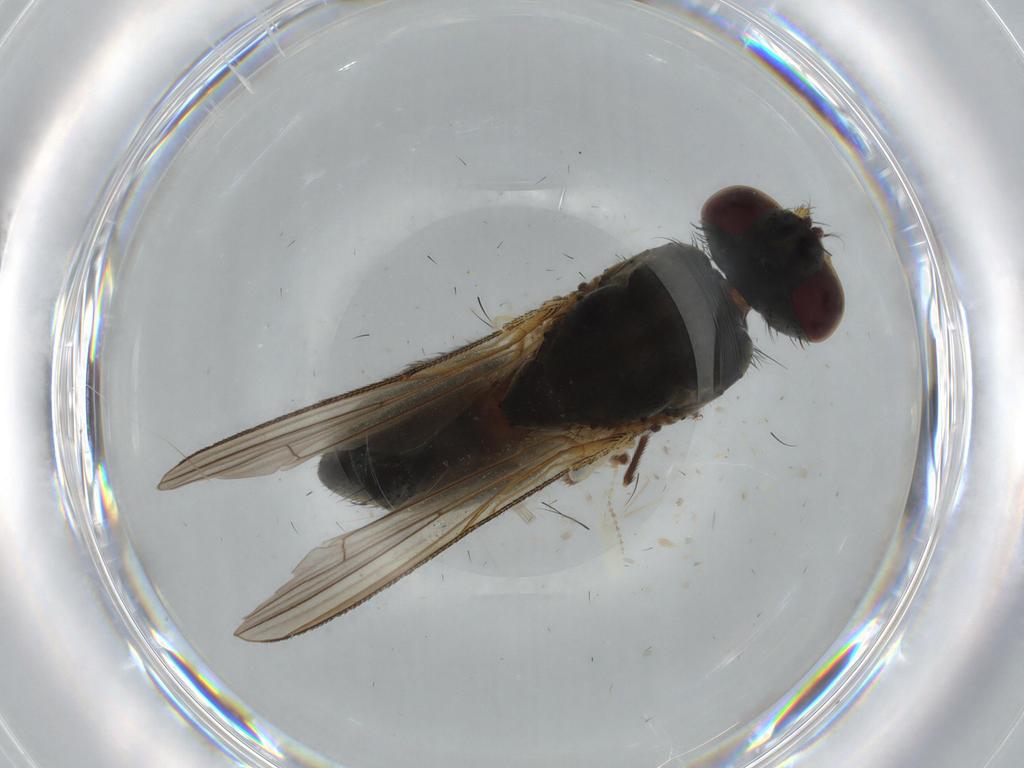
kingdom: Animalia
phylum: Arthropoda
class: Insecta
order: Diptera
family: Muscidae
